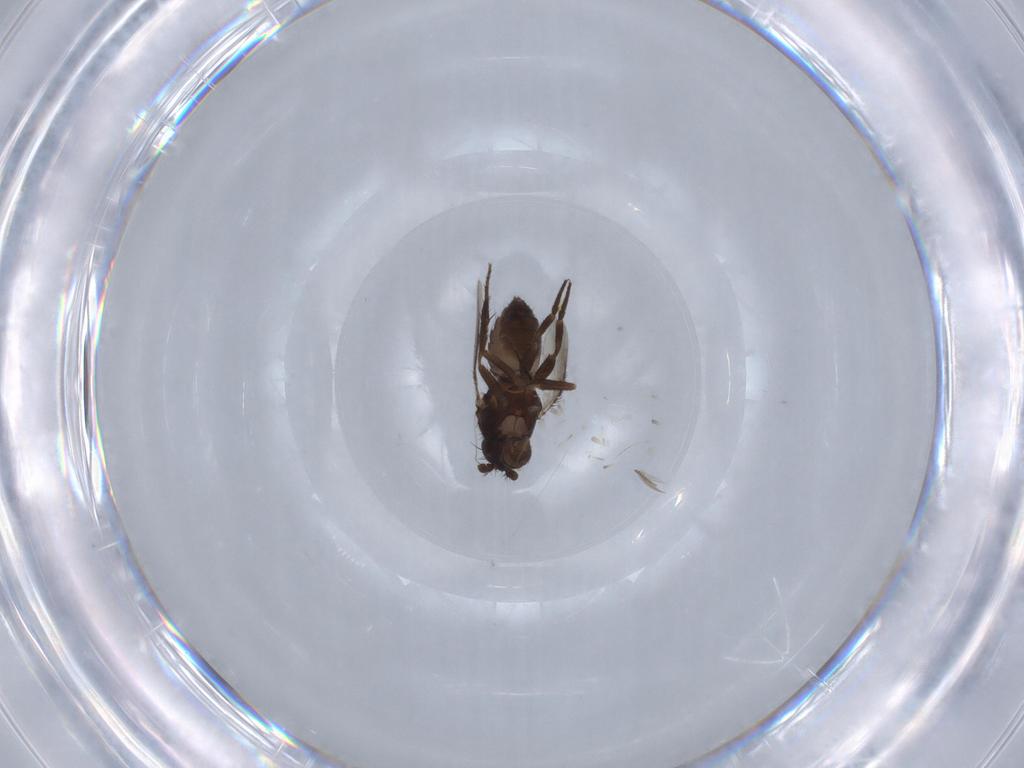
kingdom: Animalia
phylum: Arthropoda
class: Insecta
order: Diptera
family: Sphaeroceridae
